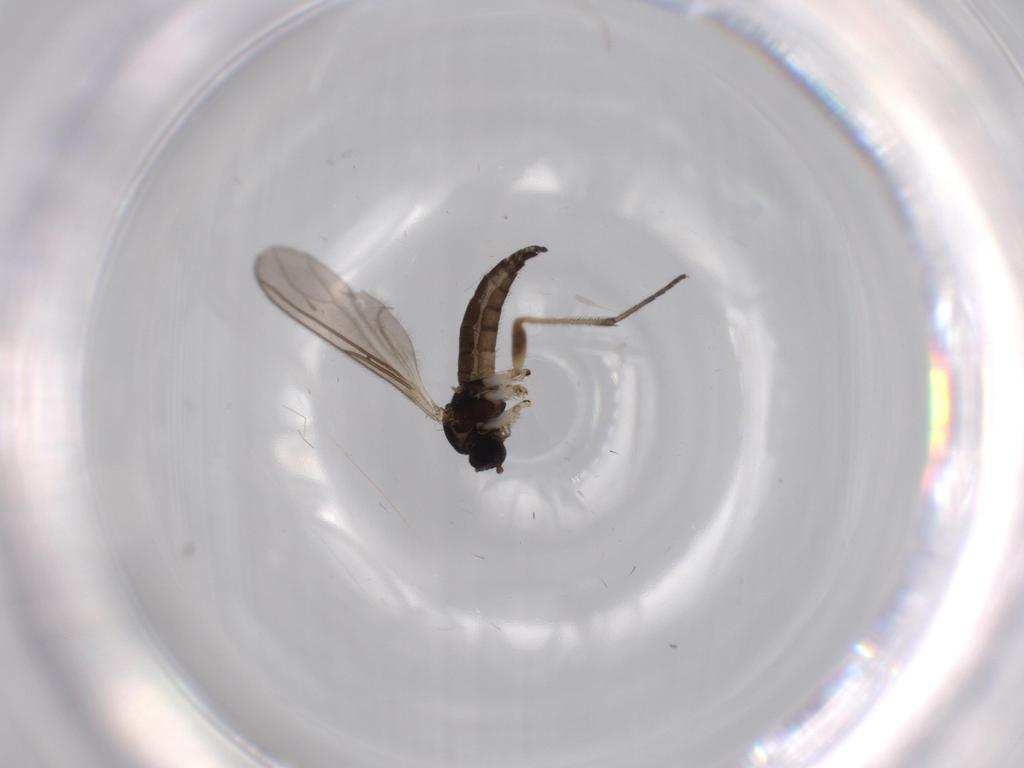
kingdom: Animalia
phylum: Arthropoda
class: Insecta
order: Diptera
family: Sciaridae
